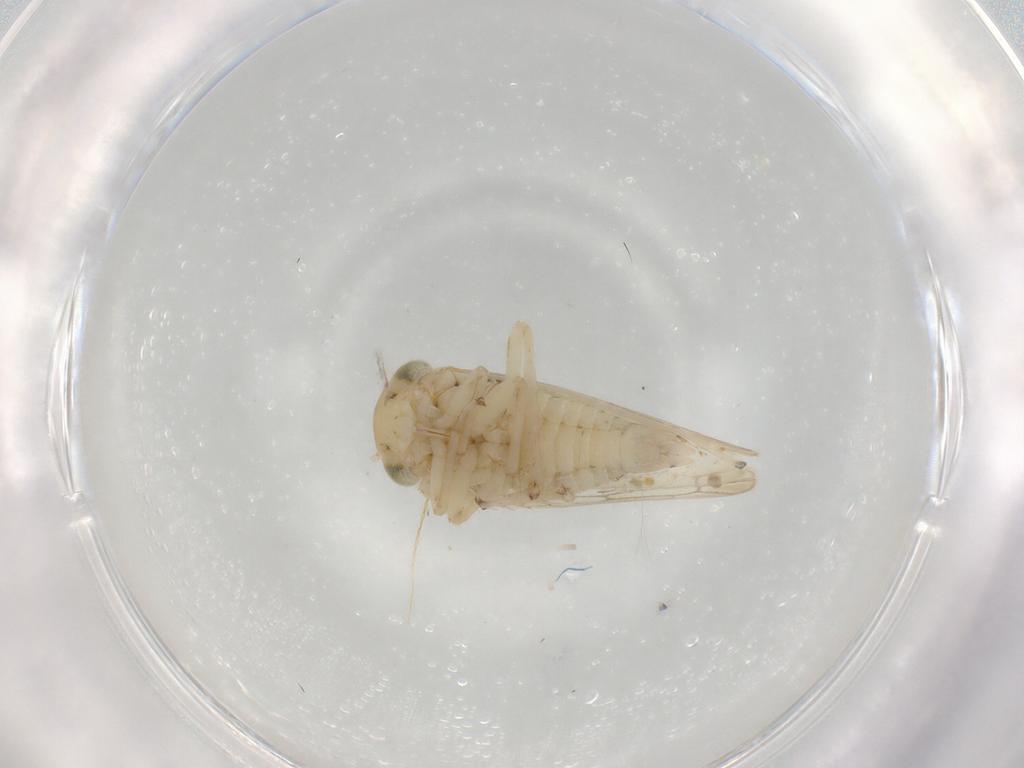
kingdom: Animalia
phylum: Arthropoda
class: Insecta
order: Hemiptera
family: Cicadellidae
